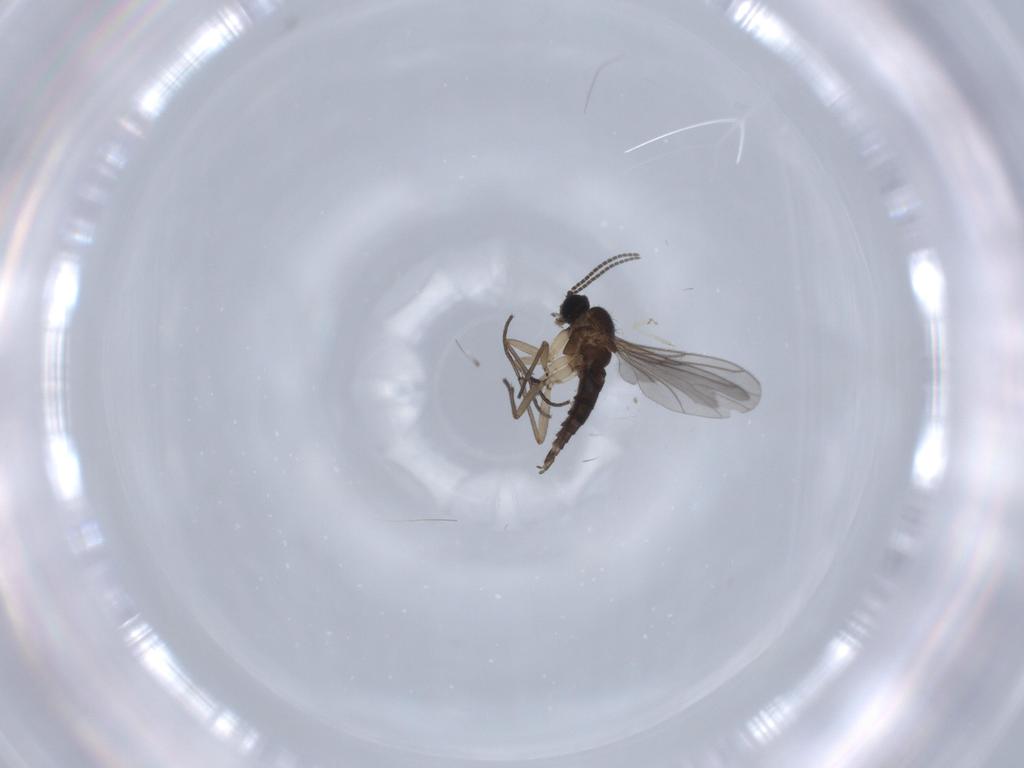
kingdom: Animalia
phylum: Arthropoda
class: Insecta
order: Diptera
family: Sciaridae
